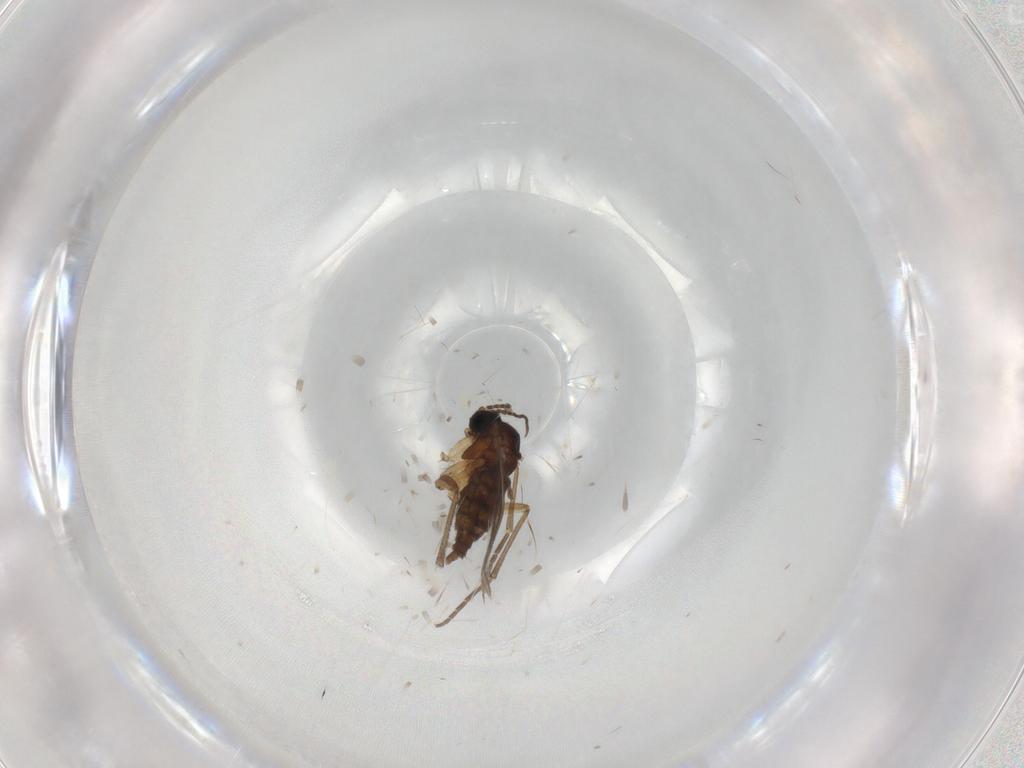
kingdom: Animalia
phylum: Arthropoda
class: Insecta
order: Diptera
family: Sciaridae
